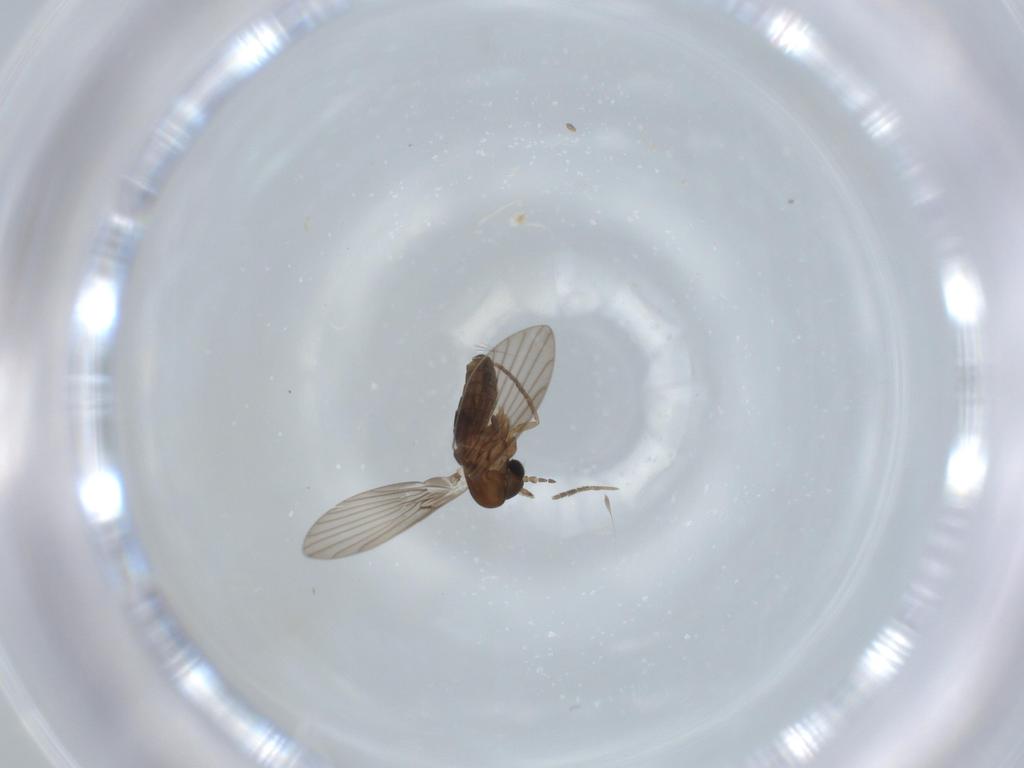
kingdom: Animalia
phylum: Arthropoda
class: Insecta
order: Diptera
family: Psychodidae
